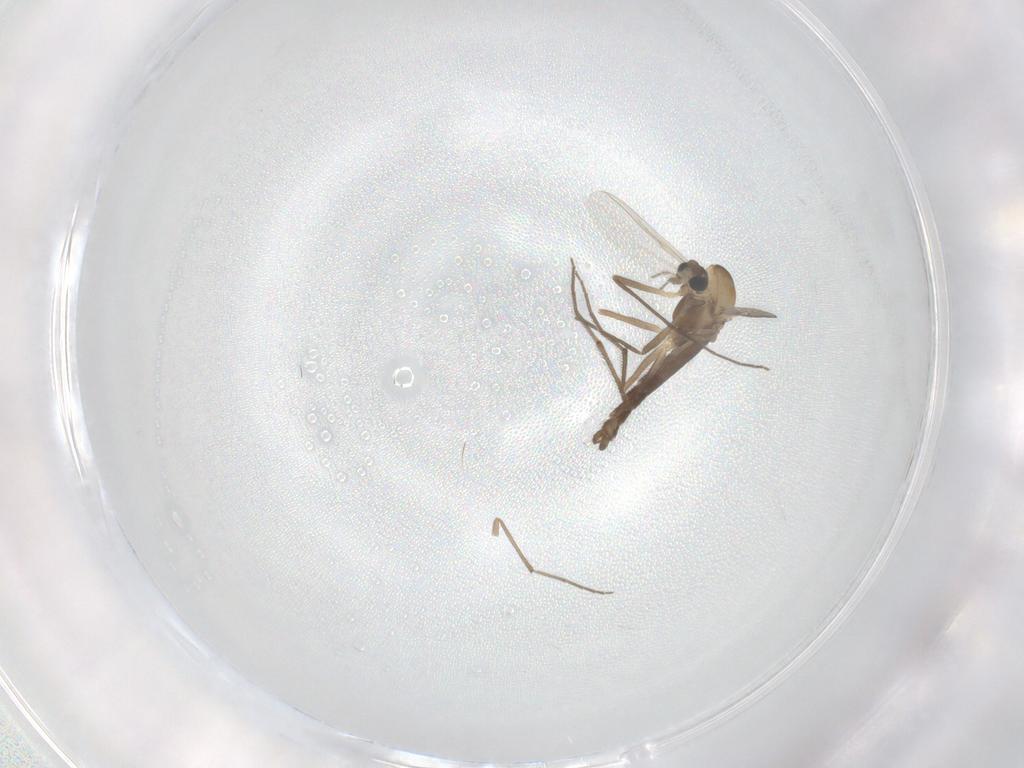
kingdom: Animalia
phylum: Arthropoda
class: Insecta
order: Diptera
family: Chironomidae
